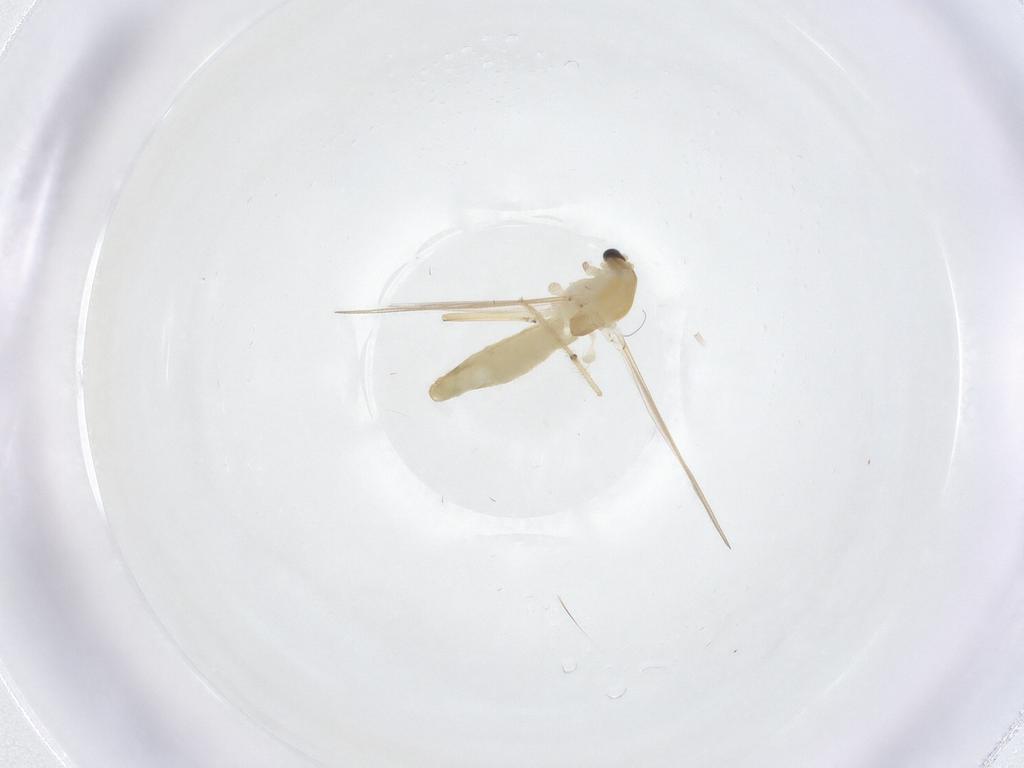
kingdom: Animalia
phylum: Arthropoda
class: Insecta
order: Diptera
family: Chironomidae
